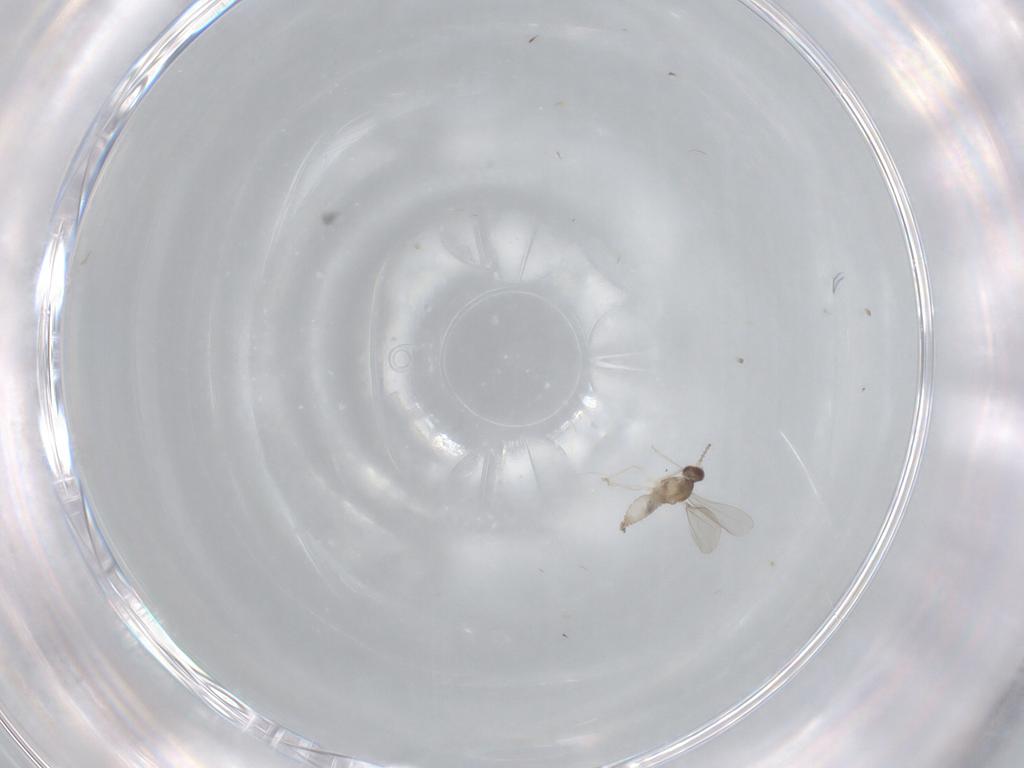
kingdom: Animalia
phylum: Arthropoda
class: Insecta
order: Diptera
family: Cecidomyiidae
